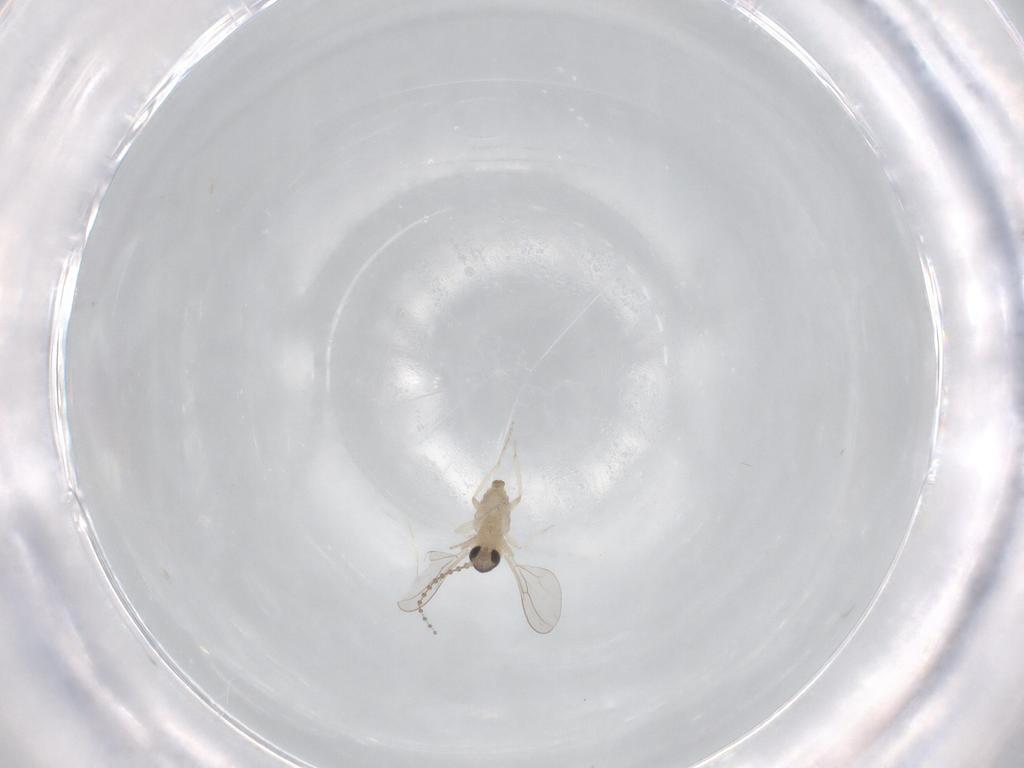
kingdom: Animalia
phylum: Arthropoda
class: Insecta
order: Diptera
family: Cecidomyiidae
